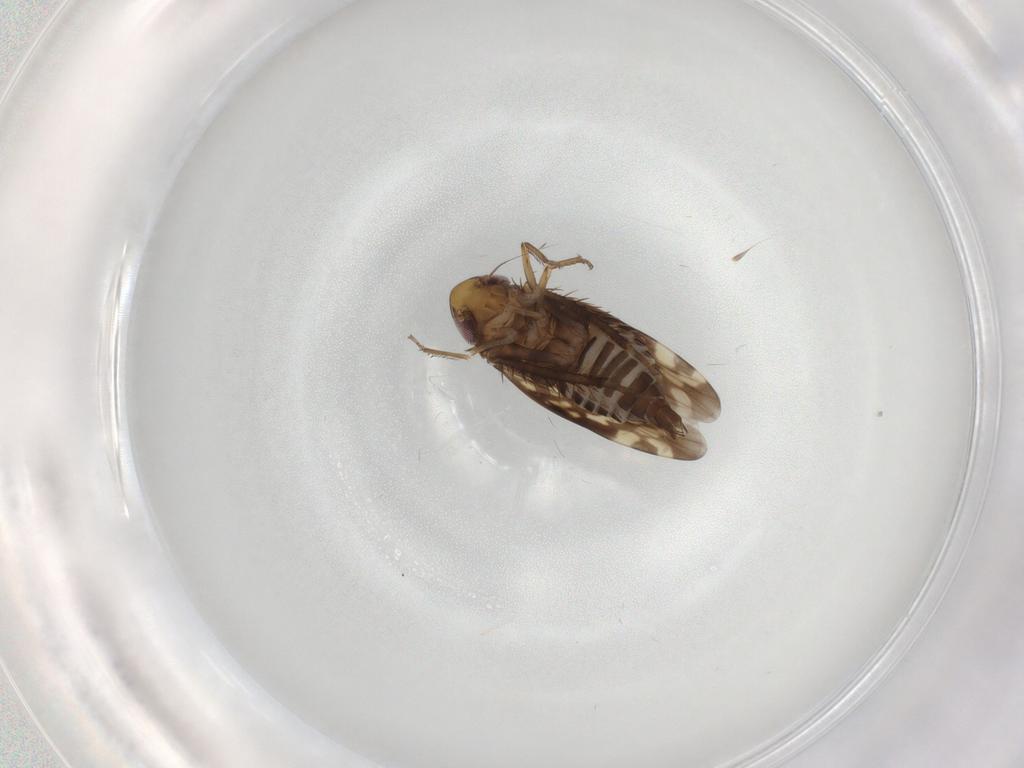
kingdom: Animalia
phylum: Arthropoda
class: Insecta
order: Hemiptera
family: Cicadellidae
